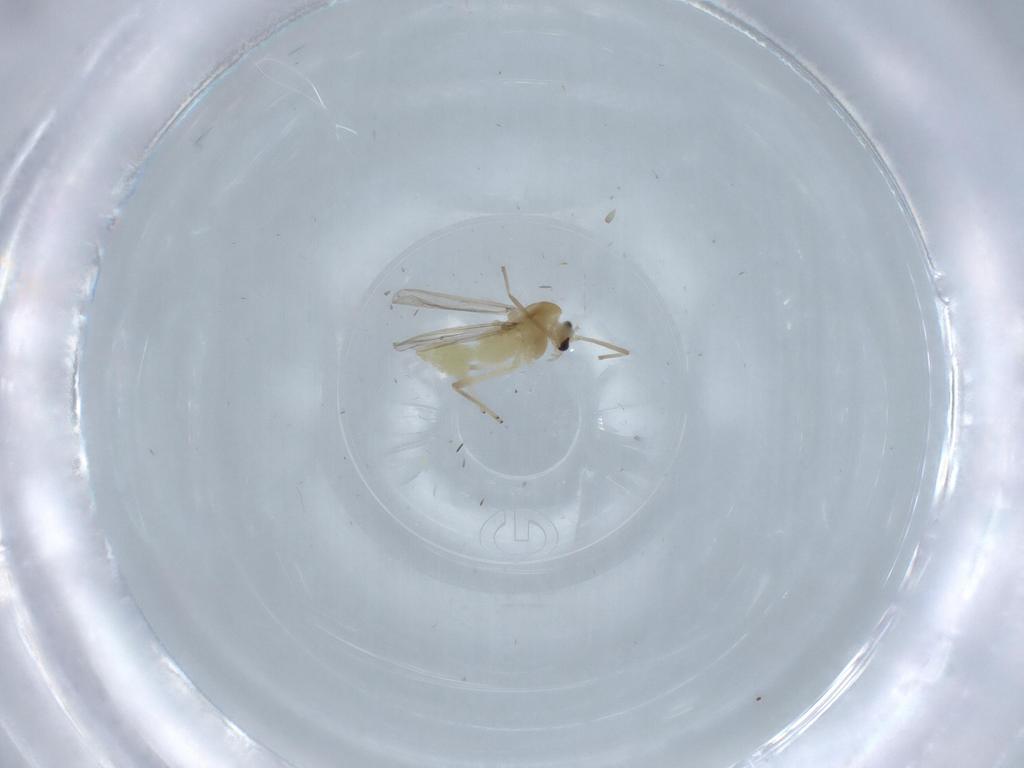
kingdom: Animalia
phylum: Arthropoda
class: Insecta
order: Diptera
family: Chironomidae
